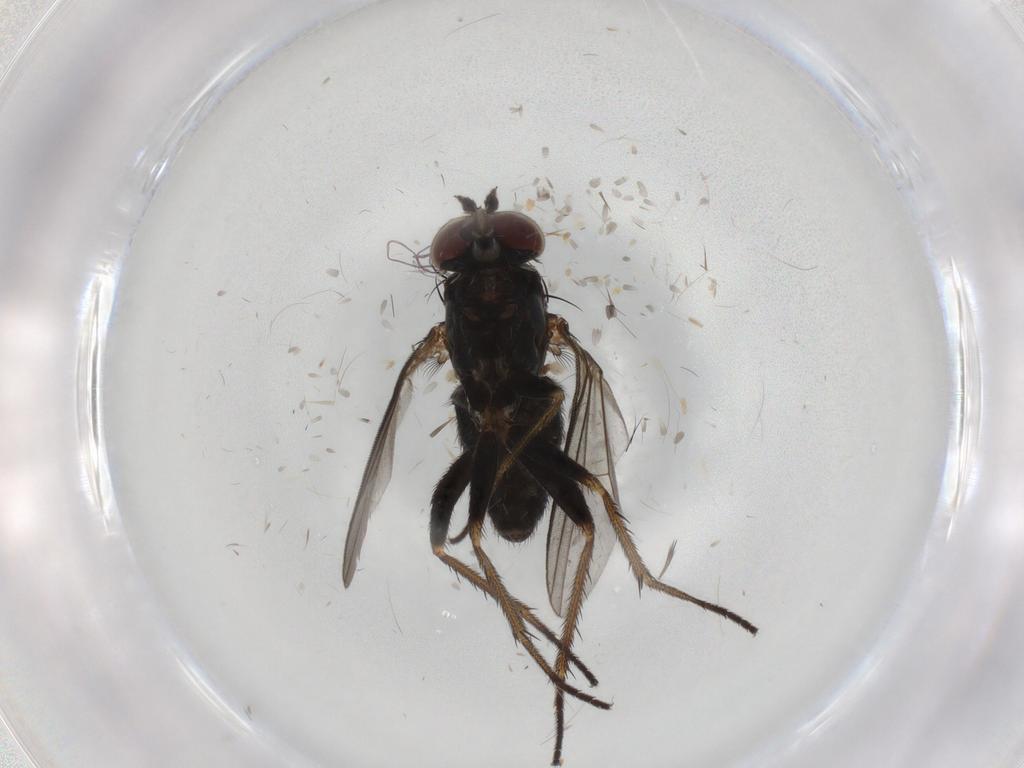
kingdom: Animalia
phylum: Arthropoda
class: Insecta
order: Diptera
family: Dolichopodidae
